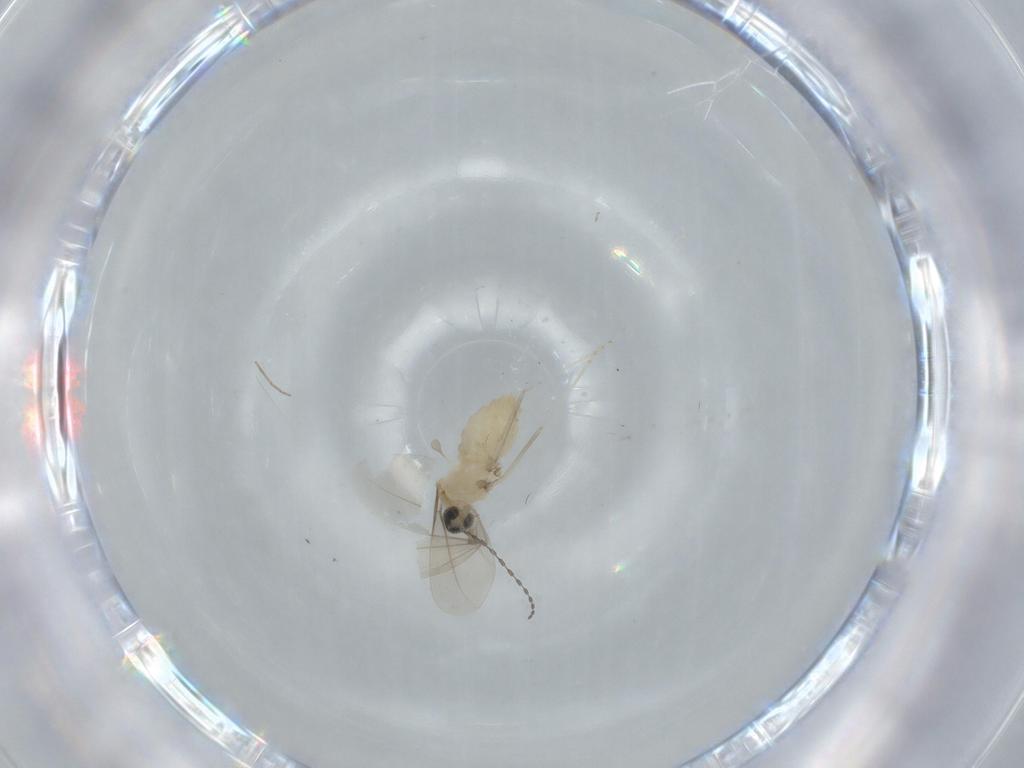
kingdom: Animalia
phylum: Arthropoda
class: Insecta
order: Diptera
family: Cecidomyiidae
